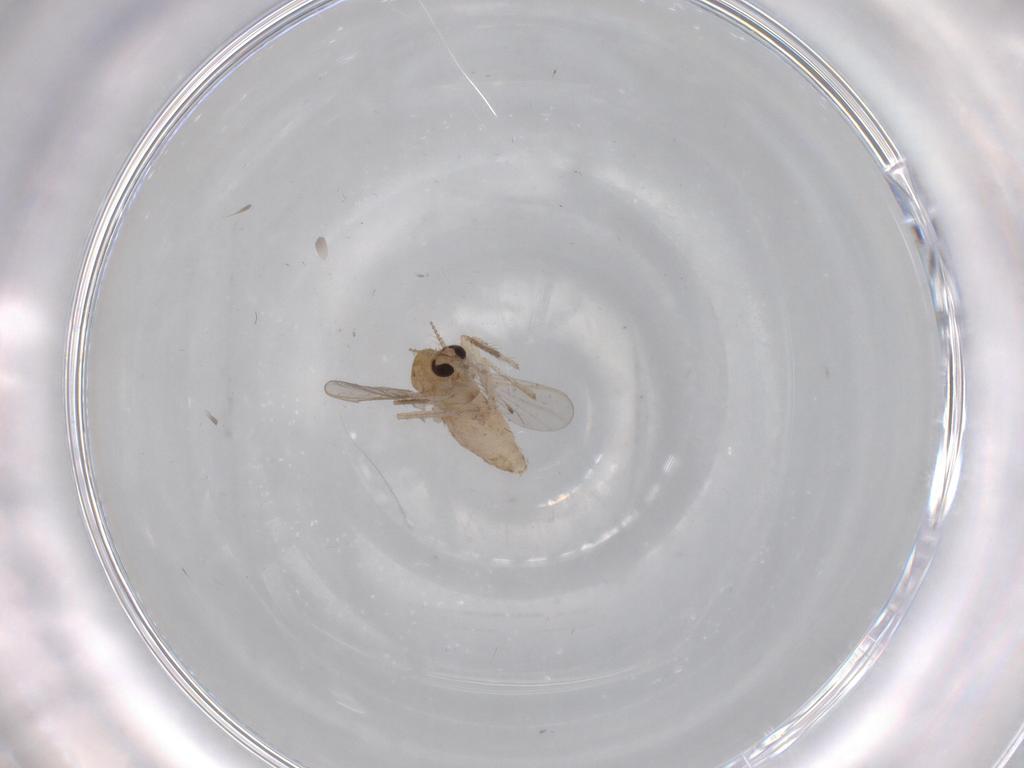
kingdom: Animalia
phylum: Arthropoda
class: Insecta
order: Diptera
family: Chironomidae
